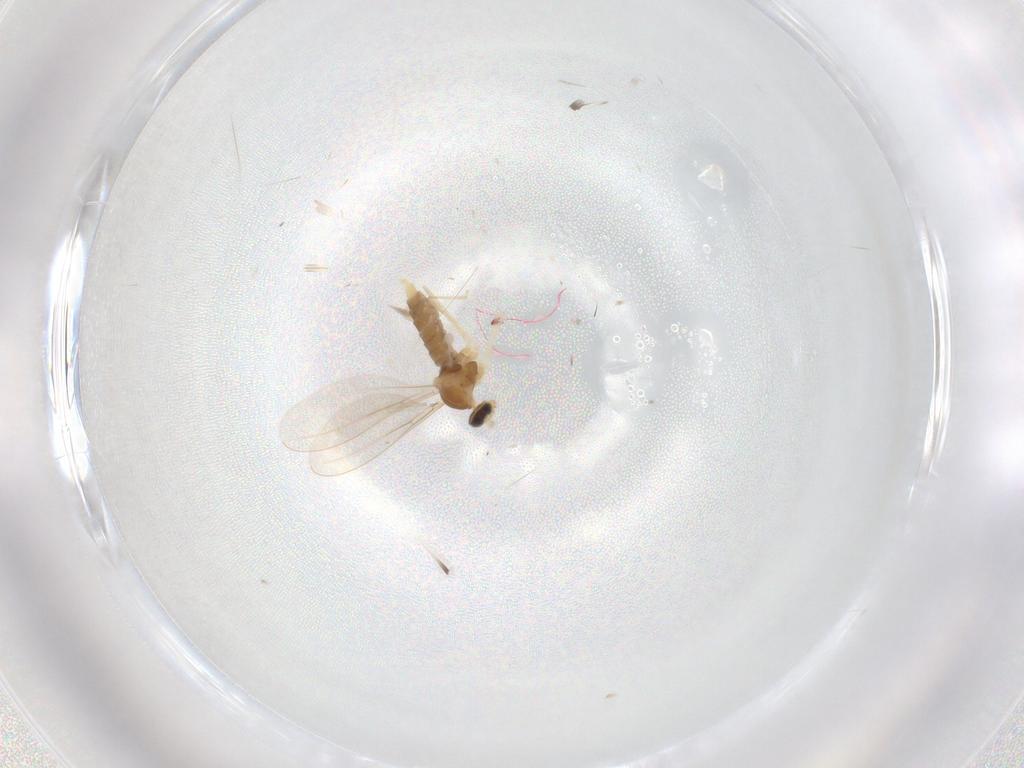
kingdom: Animalia
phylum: Arthropoda
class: Insecta
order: Diptera
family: Cecidomyiidae
